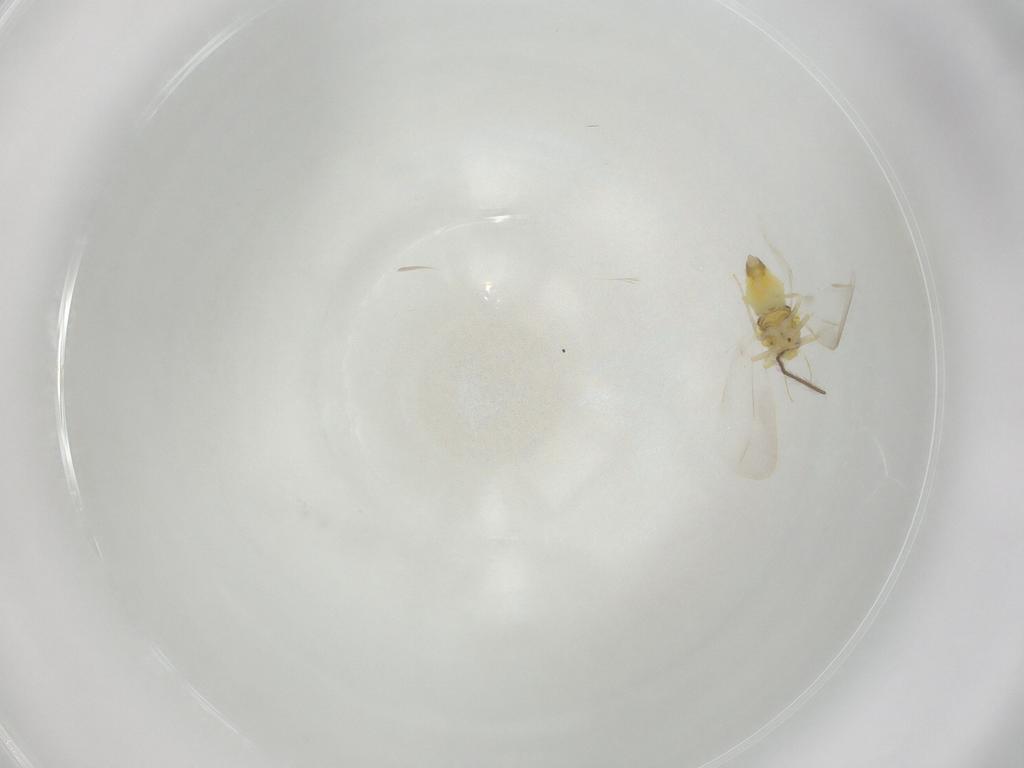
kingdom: Animalia
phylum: Arthropoda
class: Insecta
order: Hemiptera
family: Aleyrodidae
